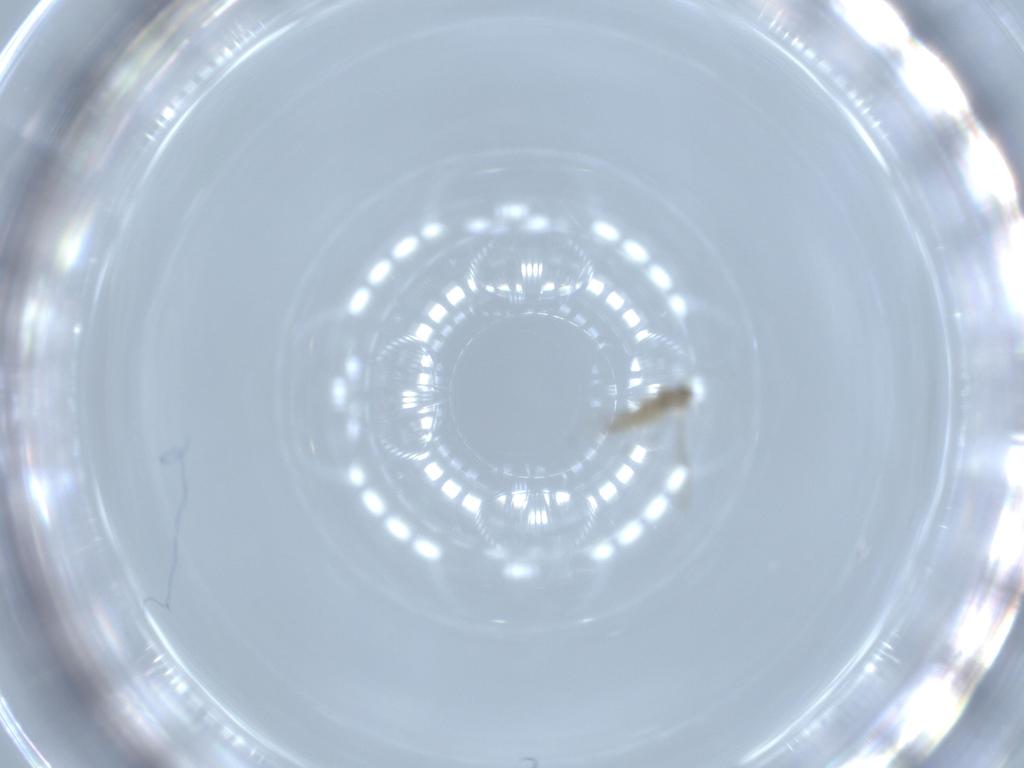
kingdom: Animalia
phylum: Arthropoda
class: Insecta
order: Diptera
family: Cecidomyiidae
